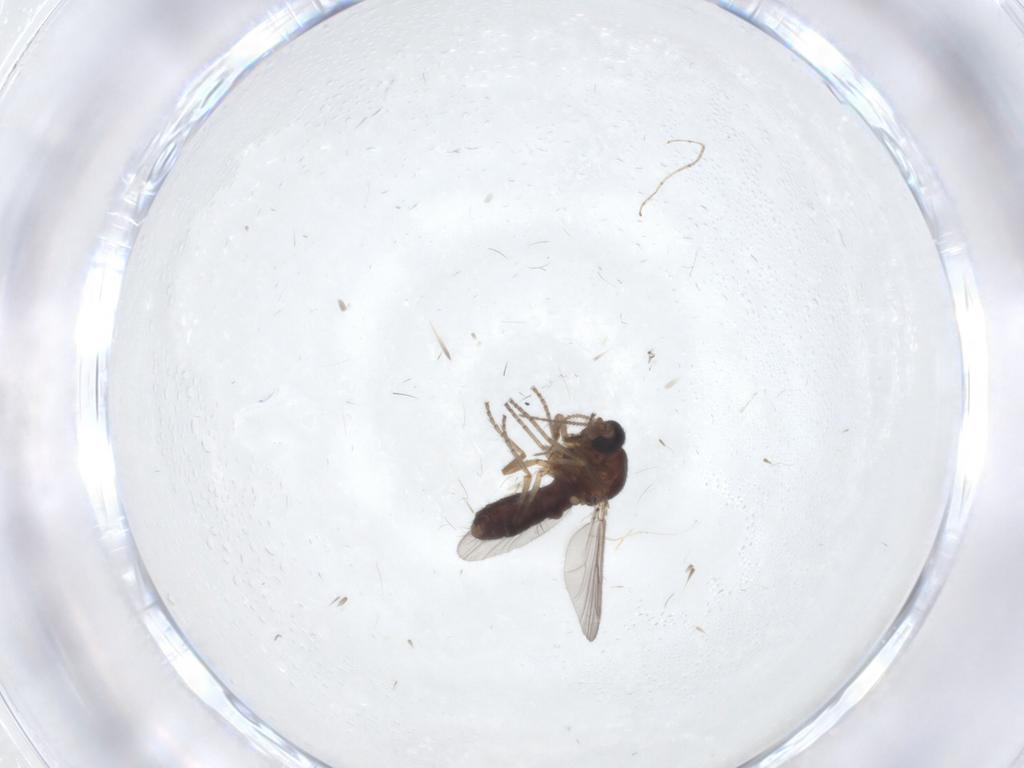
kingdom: Animalia
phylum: Arthropoda
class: Insecta
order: Diptera
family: Ceratopogonidae
